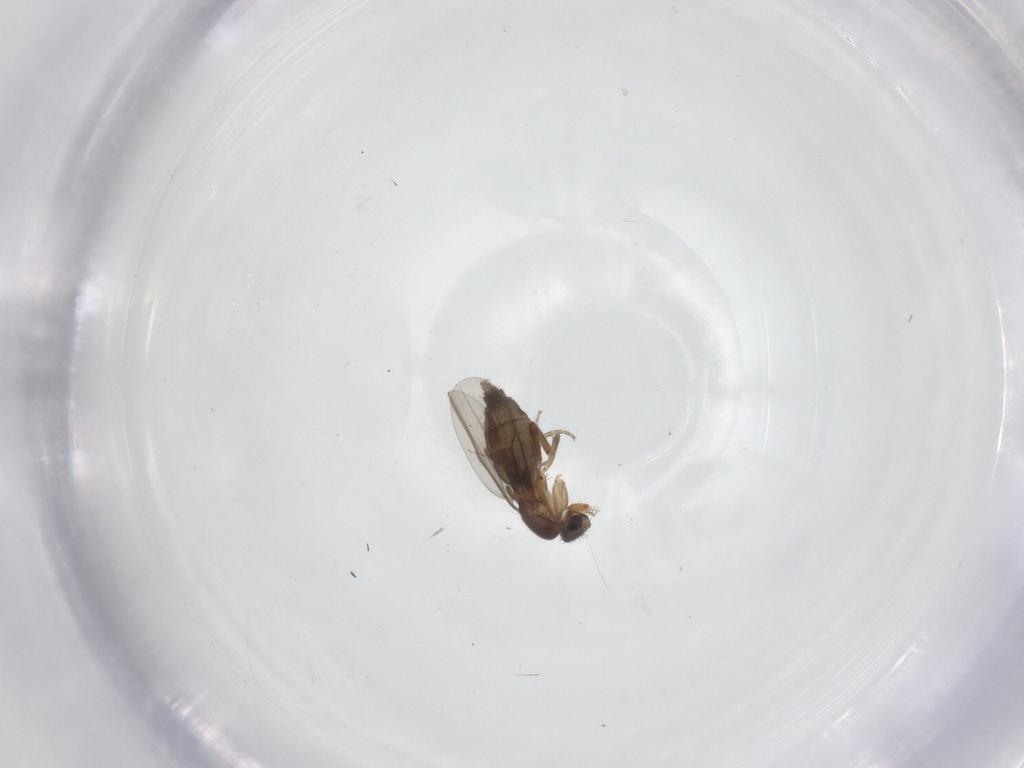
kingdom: Animalia
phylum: Arthropoda
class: Insecta
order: Diptera
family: Phoridae
